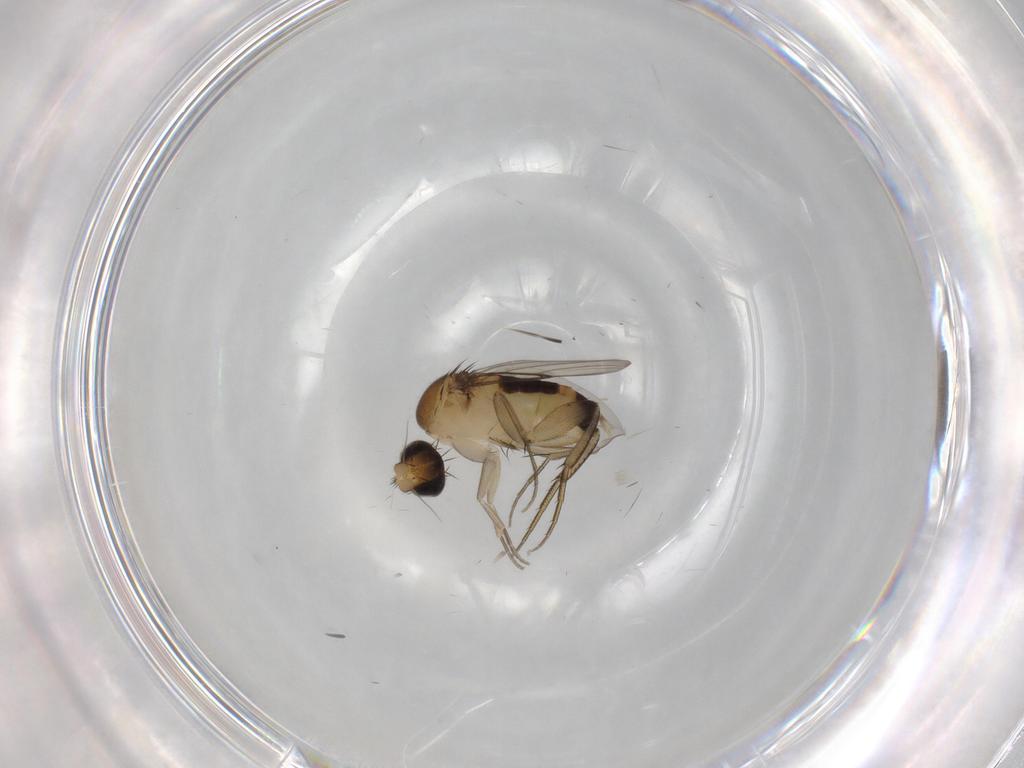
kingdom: Animalia
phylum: Arthropoda
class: Insecta
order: Diptera
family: Phoridae
